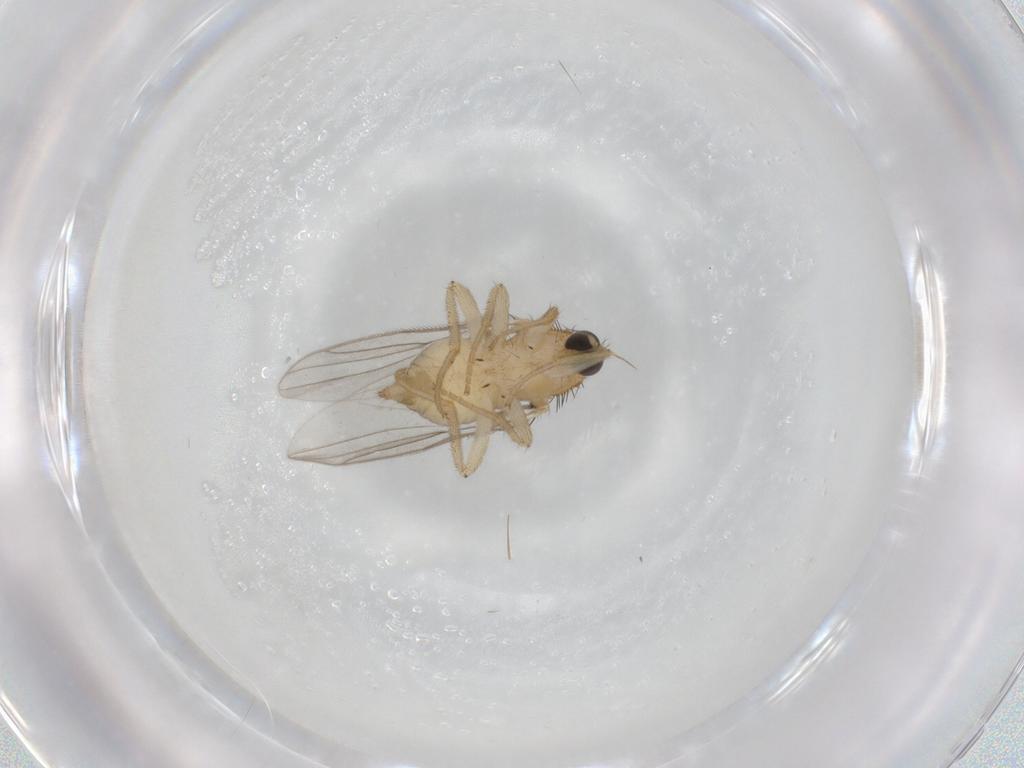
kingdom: Animalia
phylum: Arthropoda
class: Insecta
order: Diptera
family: Hybotidae
